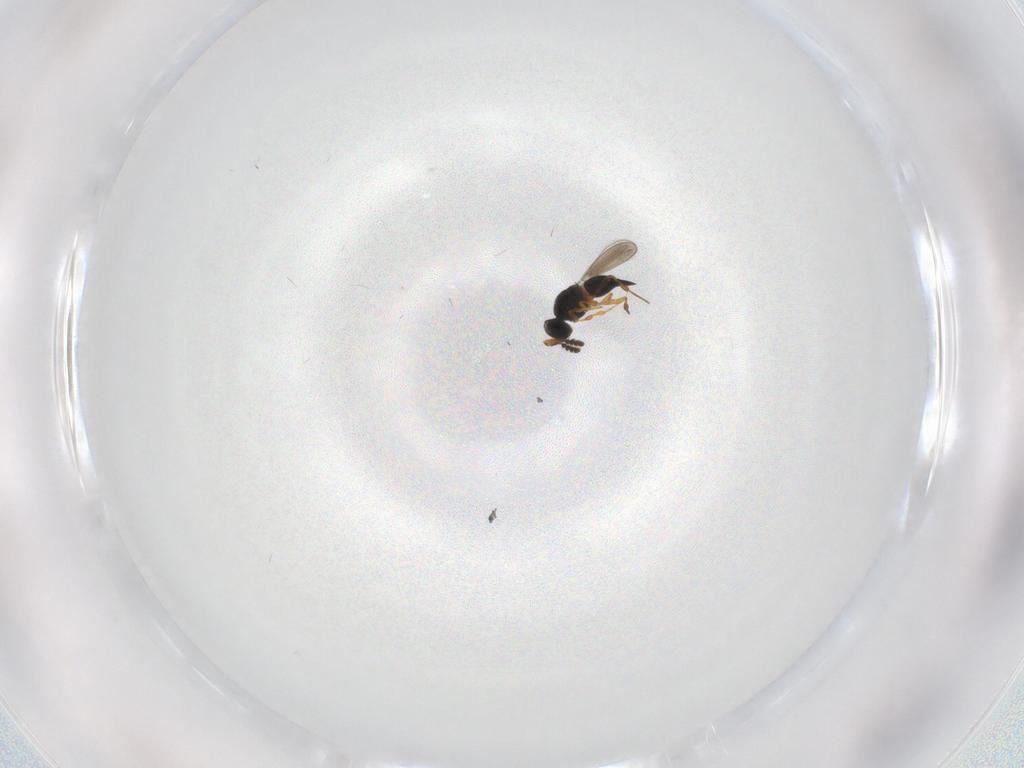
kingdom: Animalia
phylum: Arthropoda
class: Insecta
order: Hymenoptera
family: Platygastridae
